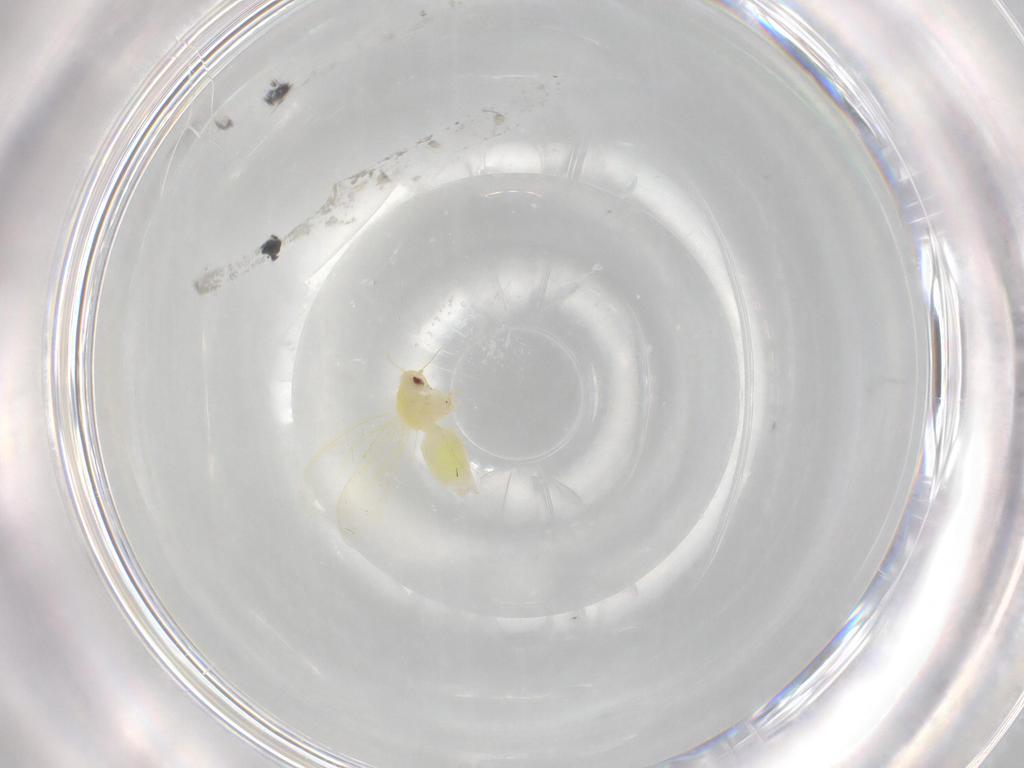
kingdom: Animalia
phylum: Arthropoda
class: Insecta
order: Hemiptera
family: Aleyrodidae
